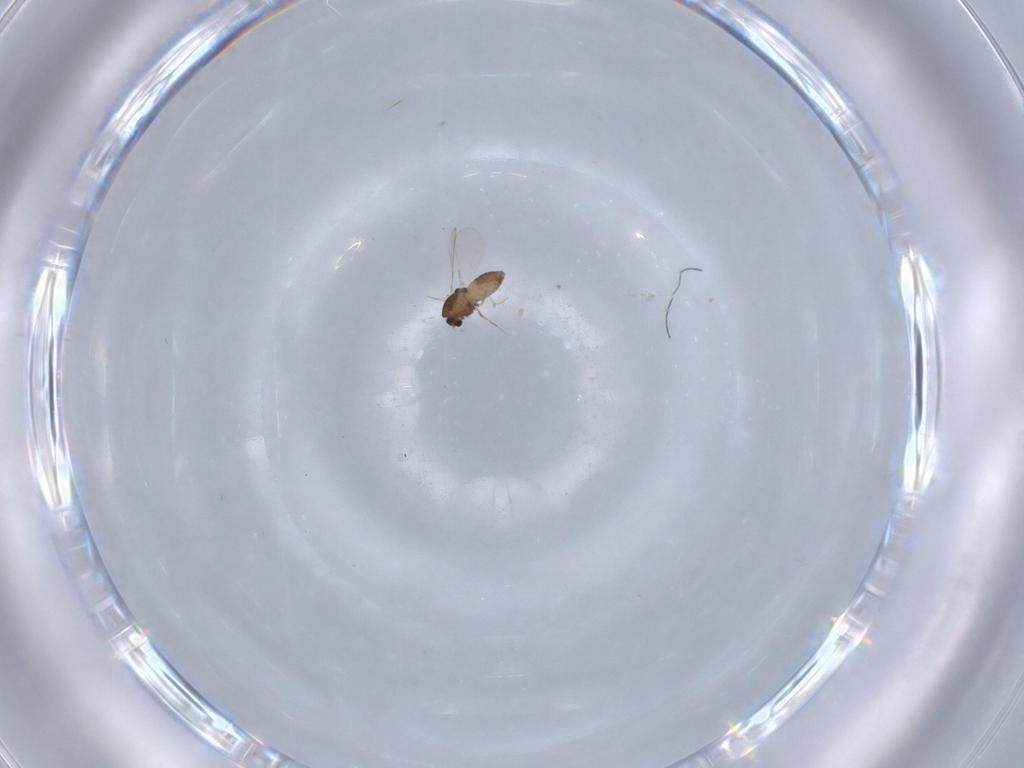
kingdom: Animalia
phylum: Arthropoda
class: Insecta
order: Diptera
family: Chironomidae
